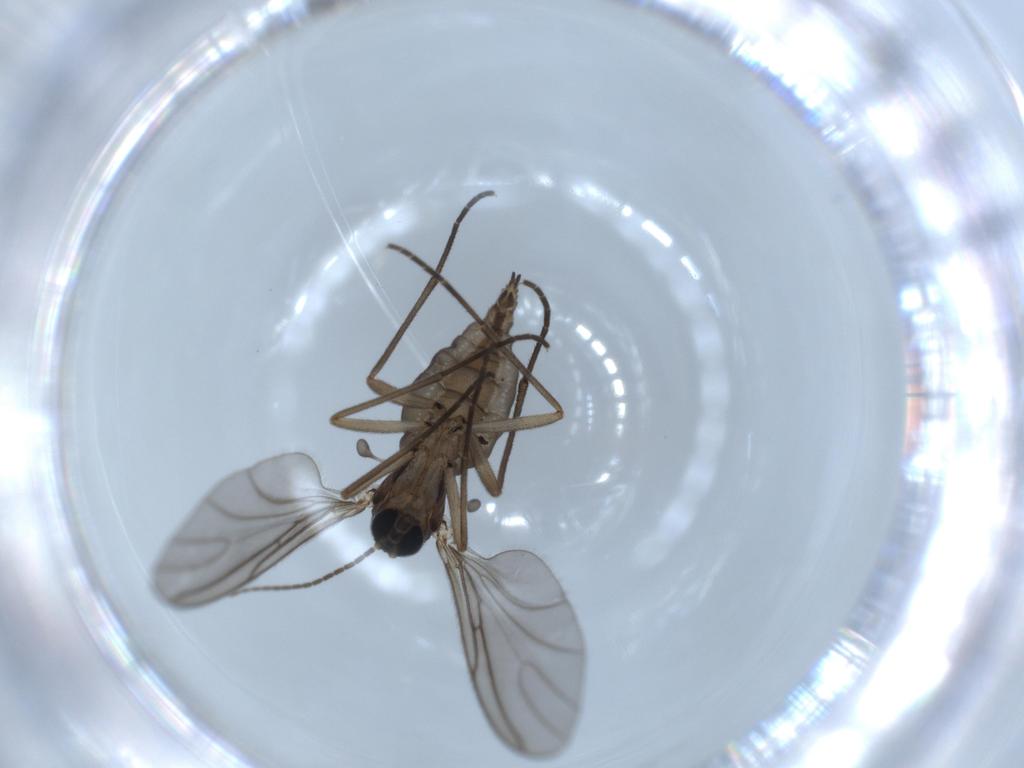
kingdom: Animalia
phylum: Arthropoda
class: Insecta
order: Diptera
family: Sciaridae
